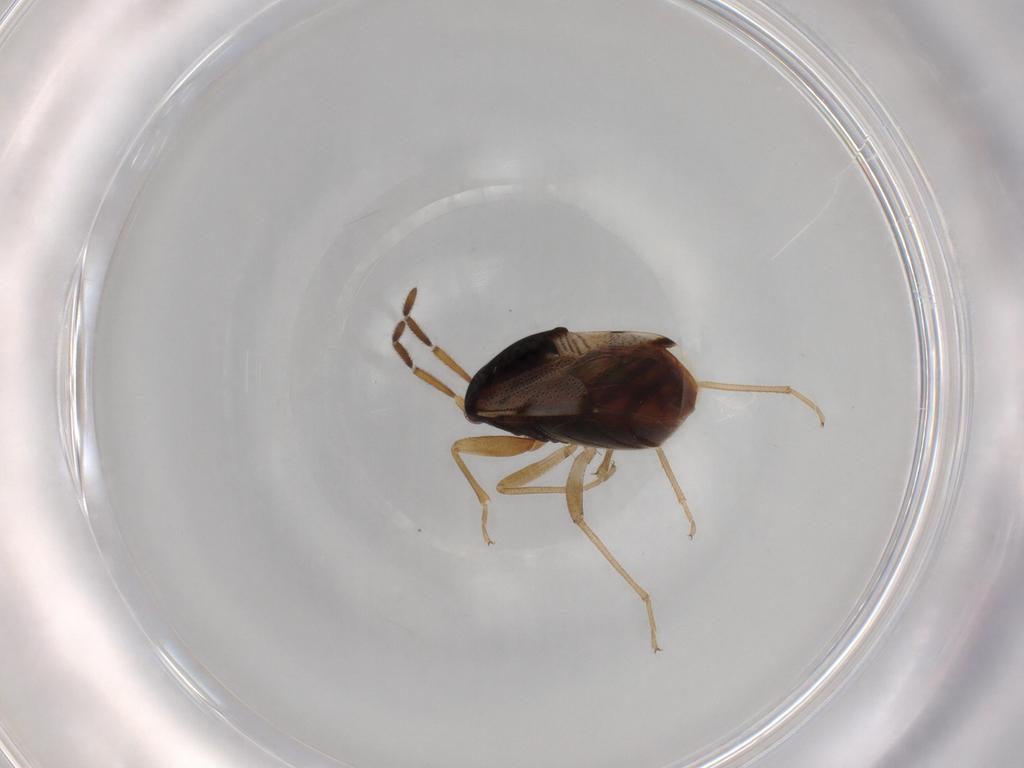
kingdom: Animalia
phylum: Arthropoda
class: Insecta
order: Hemiptera
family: Rhyparochromidae
